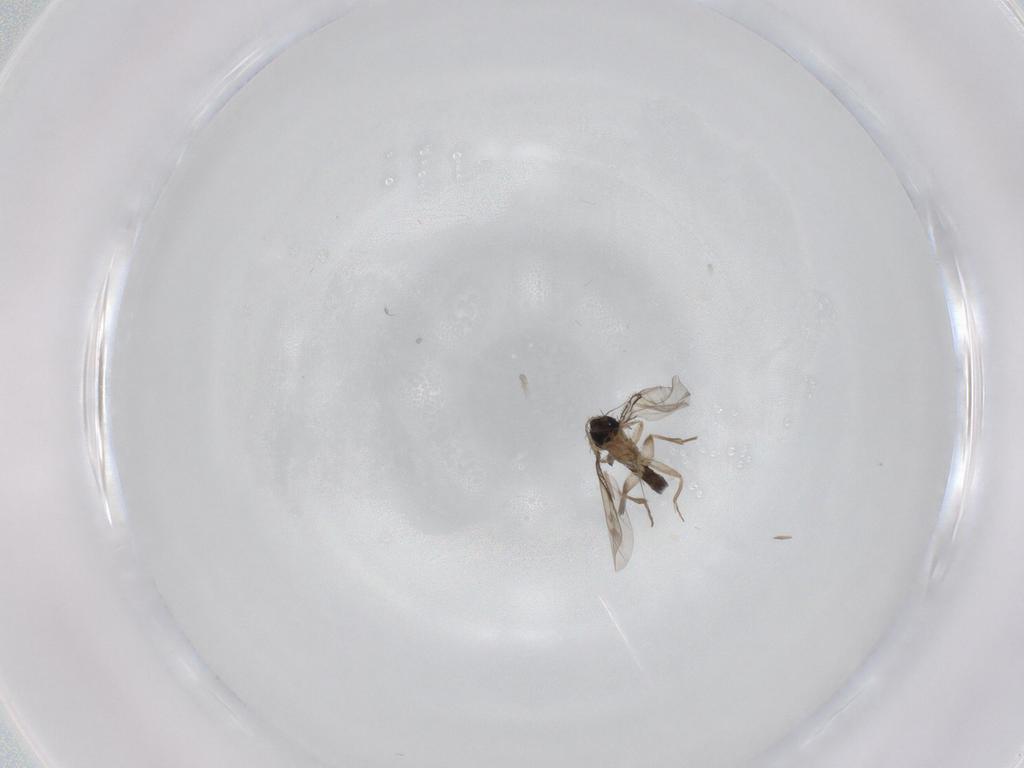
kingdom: Animalia
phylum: Arthropoda
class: Insecta
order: Diptera
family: Phoridae
